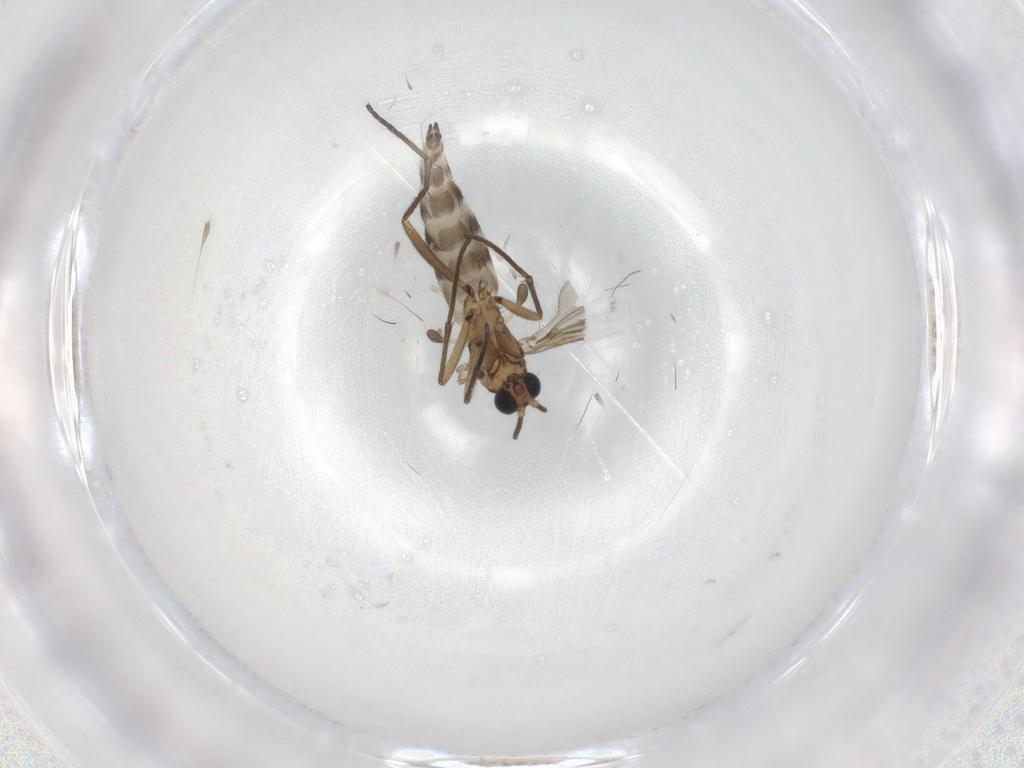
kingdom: Animalia
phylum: Arthropoda
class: Insecta
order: Diptera
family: Sciaridae
